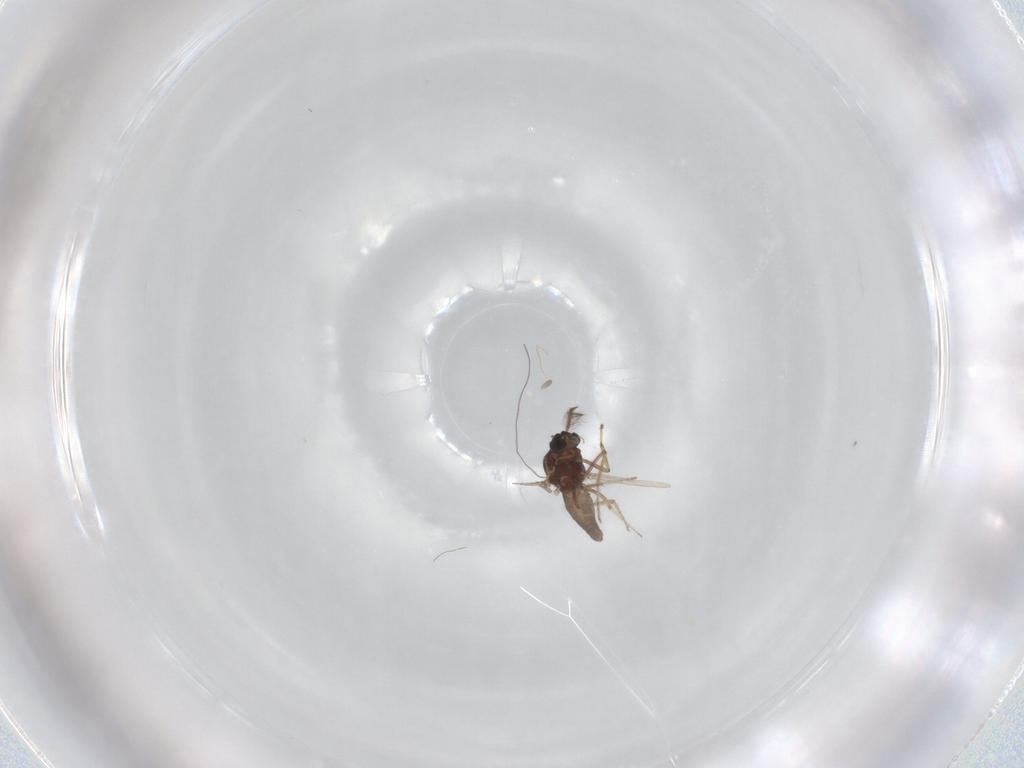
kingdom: Animalia
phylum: Arthropoda
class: Insecta
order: Diptera
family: Ceratopogonidae
